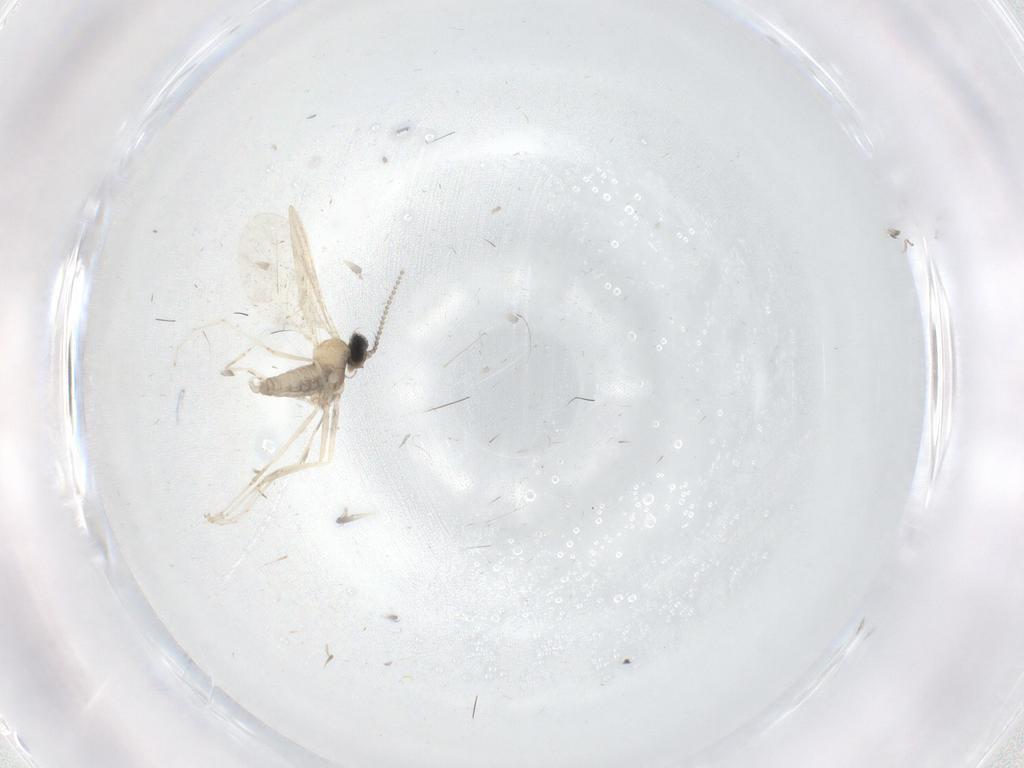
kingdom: Animalia
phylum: Arthropoda
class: Insecta
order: Diptera
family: Cecidomyiidae
